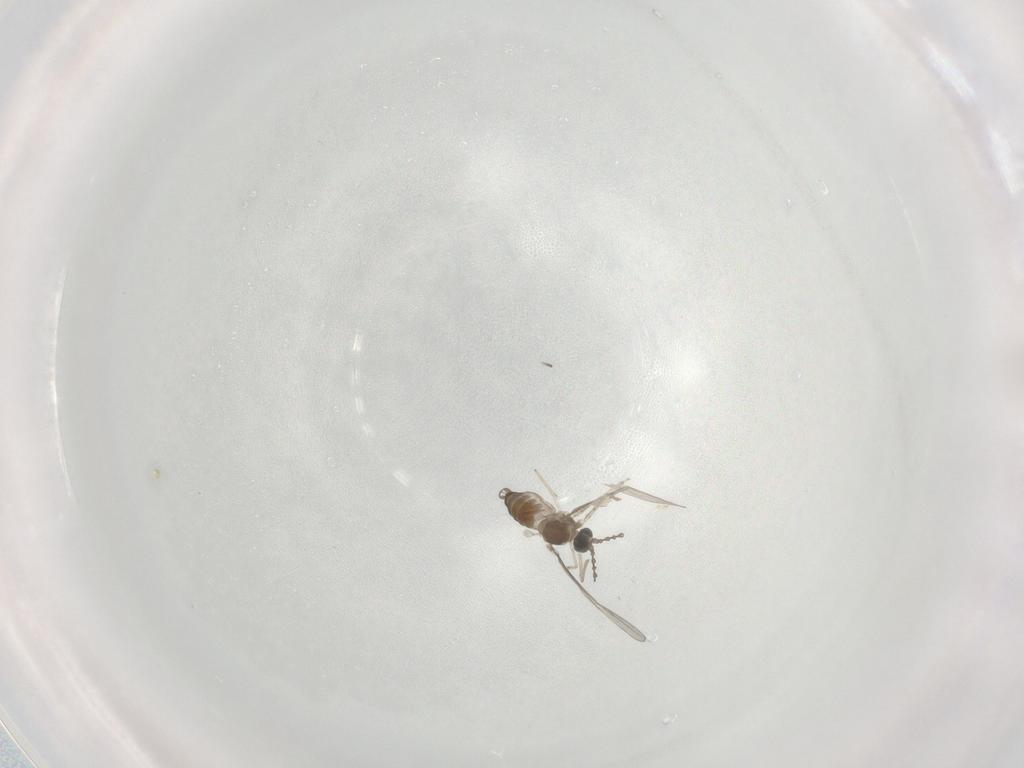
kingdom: Animalia
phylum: Arthropoda
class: Insecta
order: Diptera
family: Cecidomyiidae
